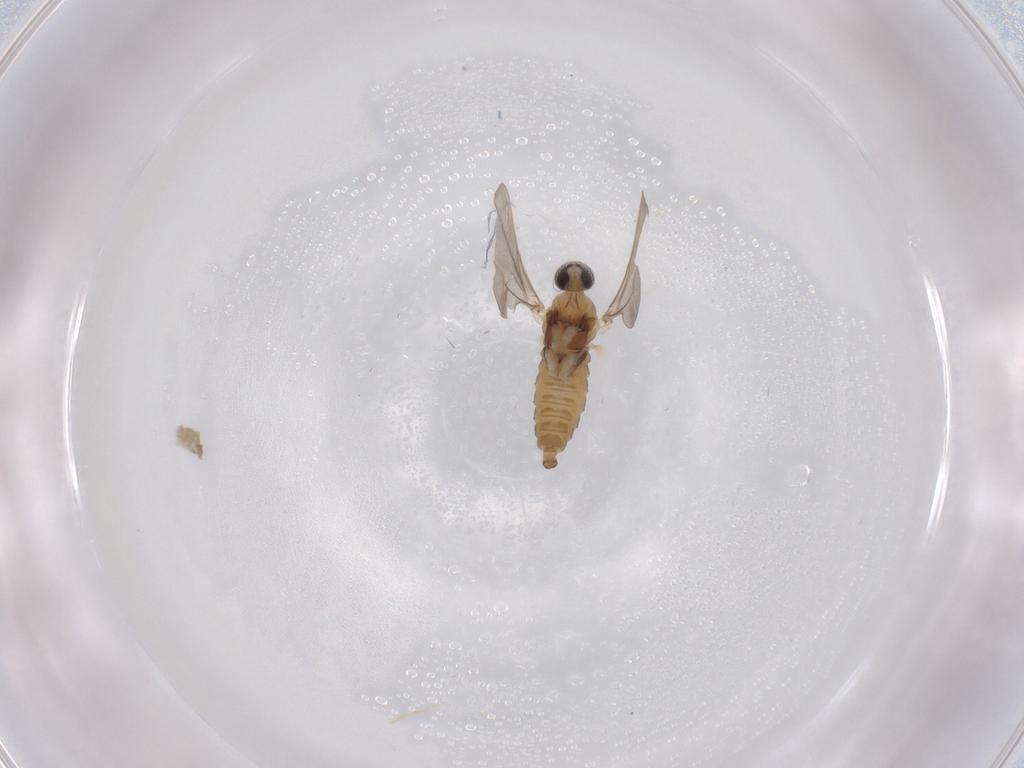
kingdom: Animalia
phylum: Arthropoda
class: Insecta
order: Diptera
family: Cecidomyiidae
